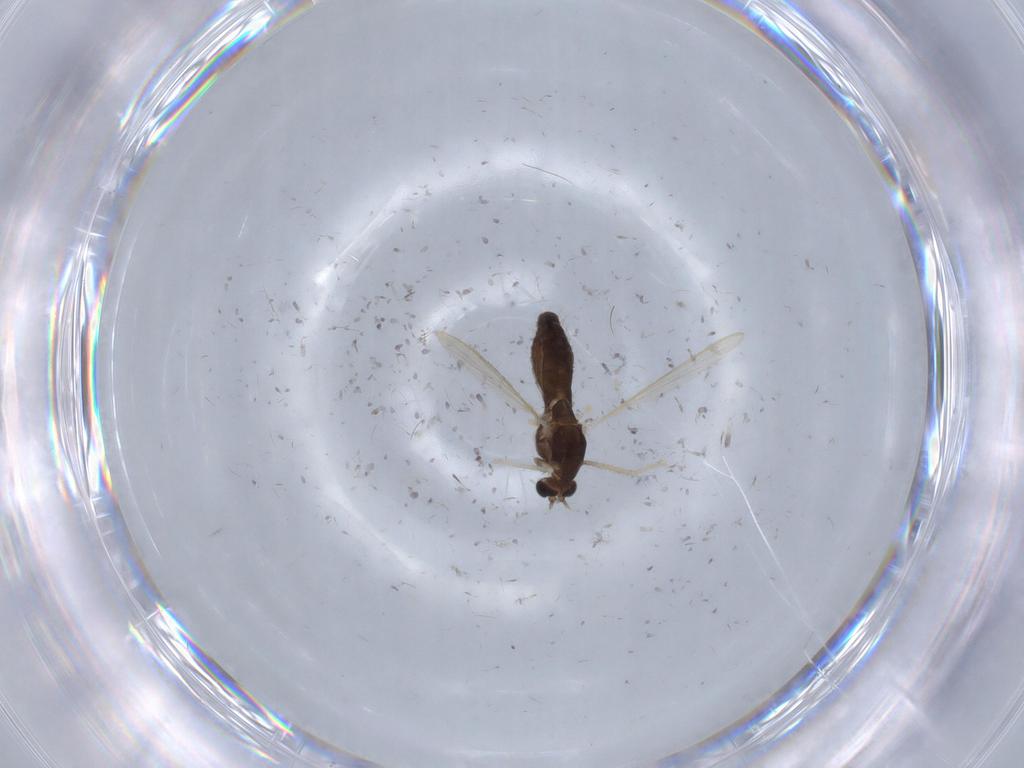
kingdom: Animalia
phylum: Arthropoda
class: Insecta
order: Diptera
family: Chironomidae
